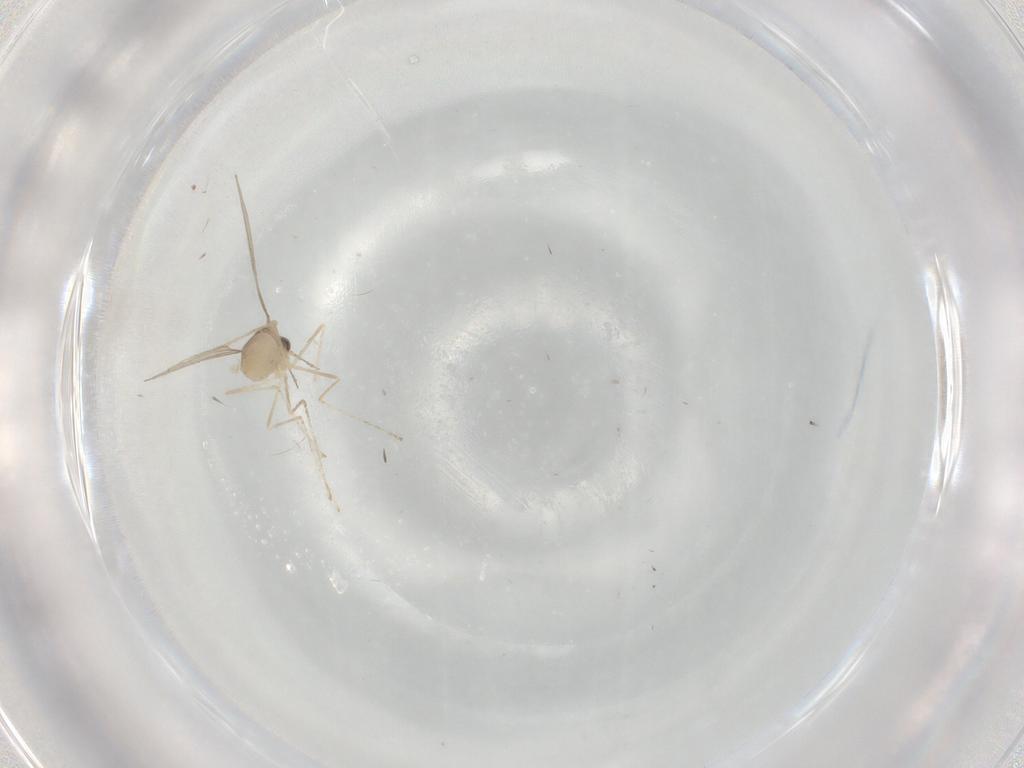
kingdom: Animalia
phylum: Arthropoda
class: Insecta
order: Diptera
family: Cecidomyiidae
